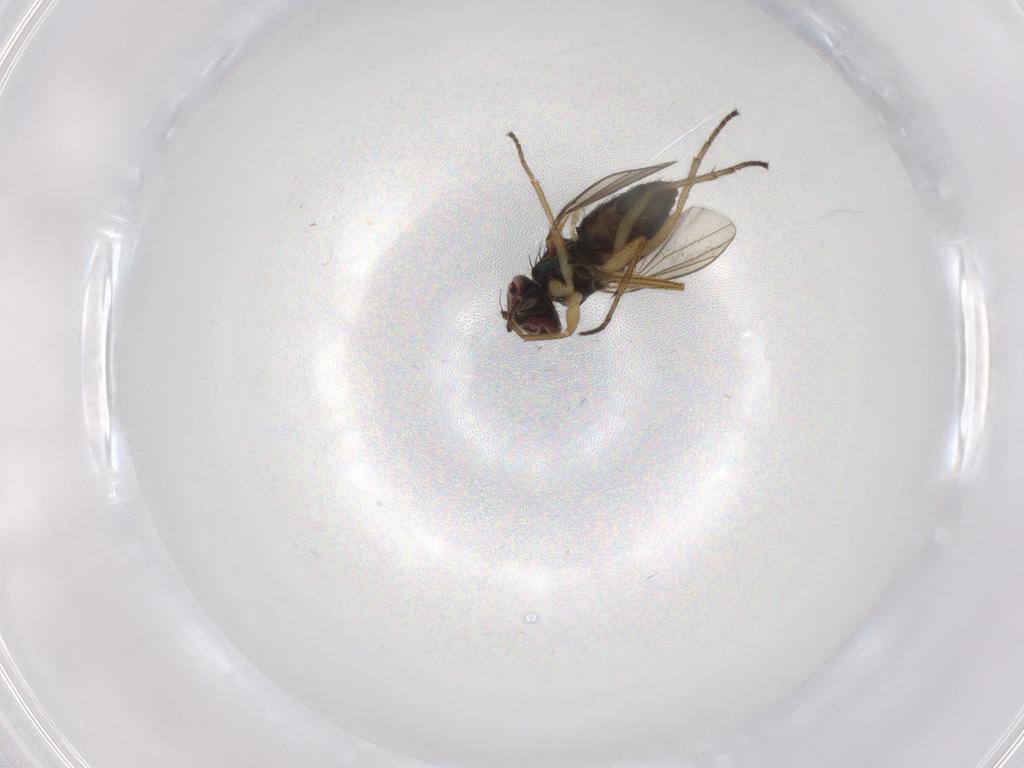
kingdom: Animalia
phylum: Arthropoda
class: Insecta
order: Diptera
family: Dolichopodidae
